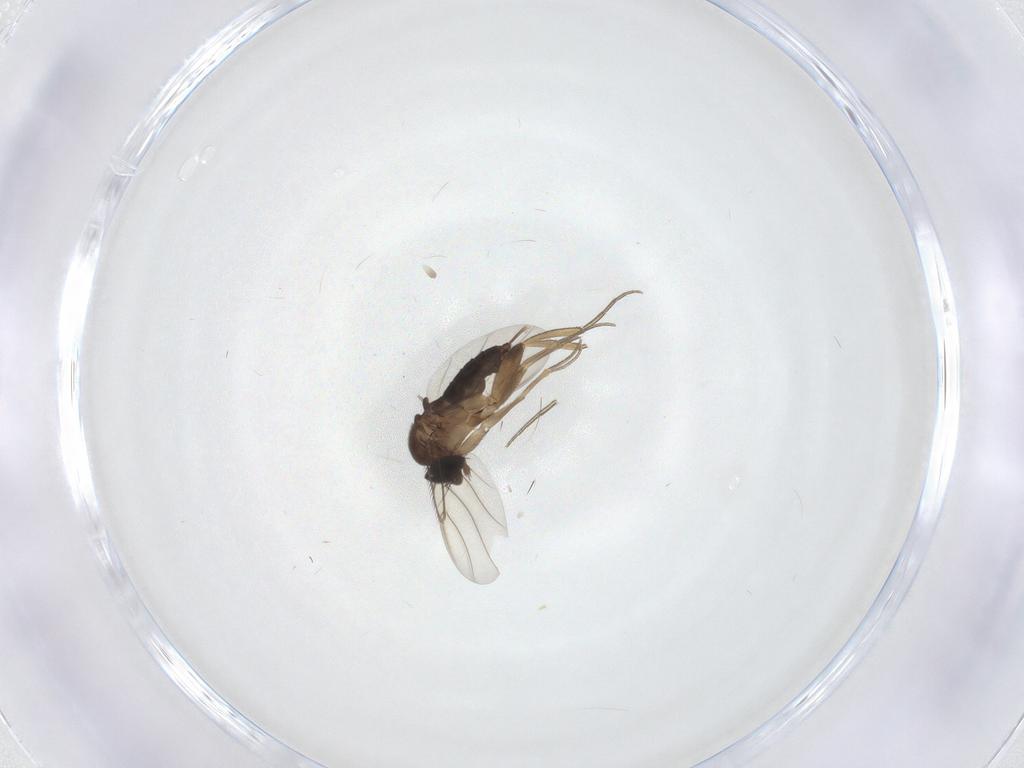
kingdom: Animalia
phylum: Arthropoda
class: Insecta
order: Diptera
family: Phoridae
